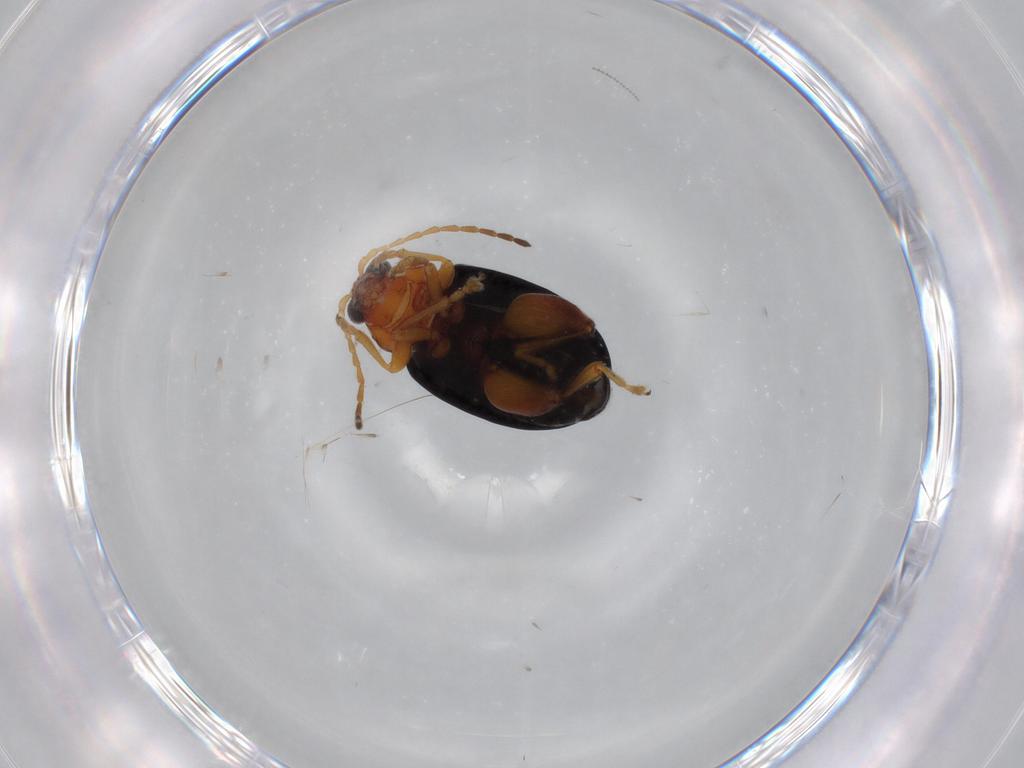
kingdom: Animalia
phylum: Arthropoda
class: Insecta
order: Coleoptera
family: Chrysomelidae
